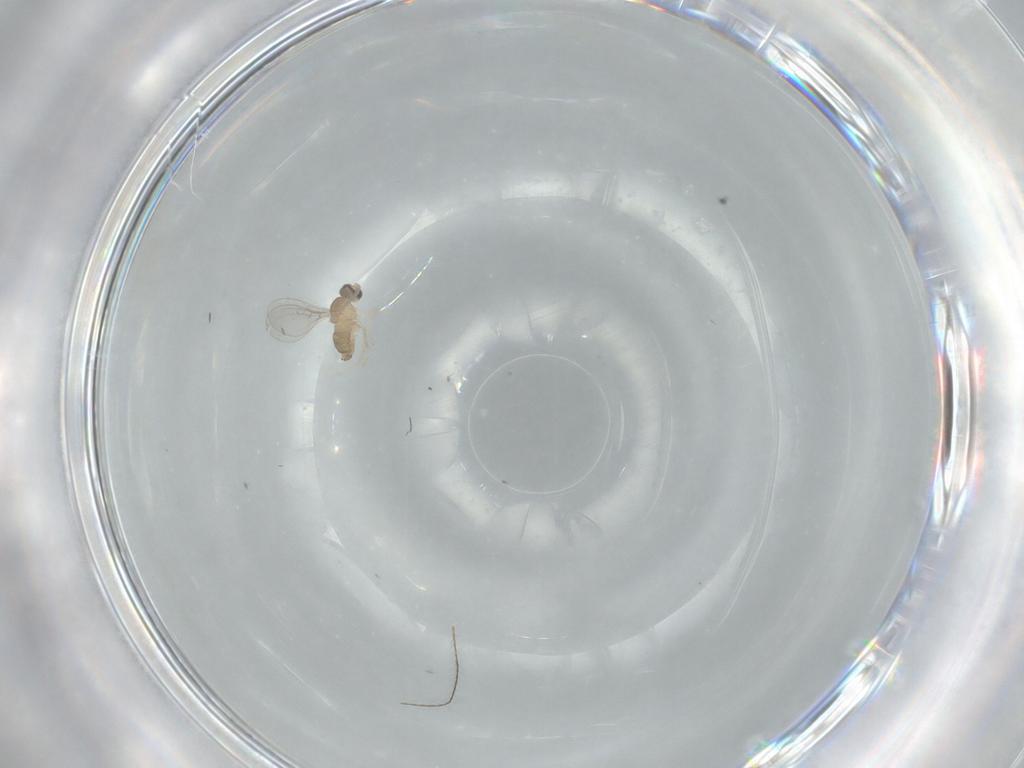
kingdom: Animalia
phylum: Arthropoda
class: Insecta
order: Diptera
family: Cecidomyiidae
